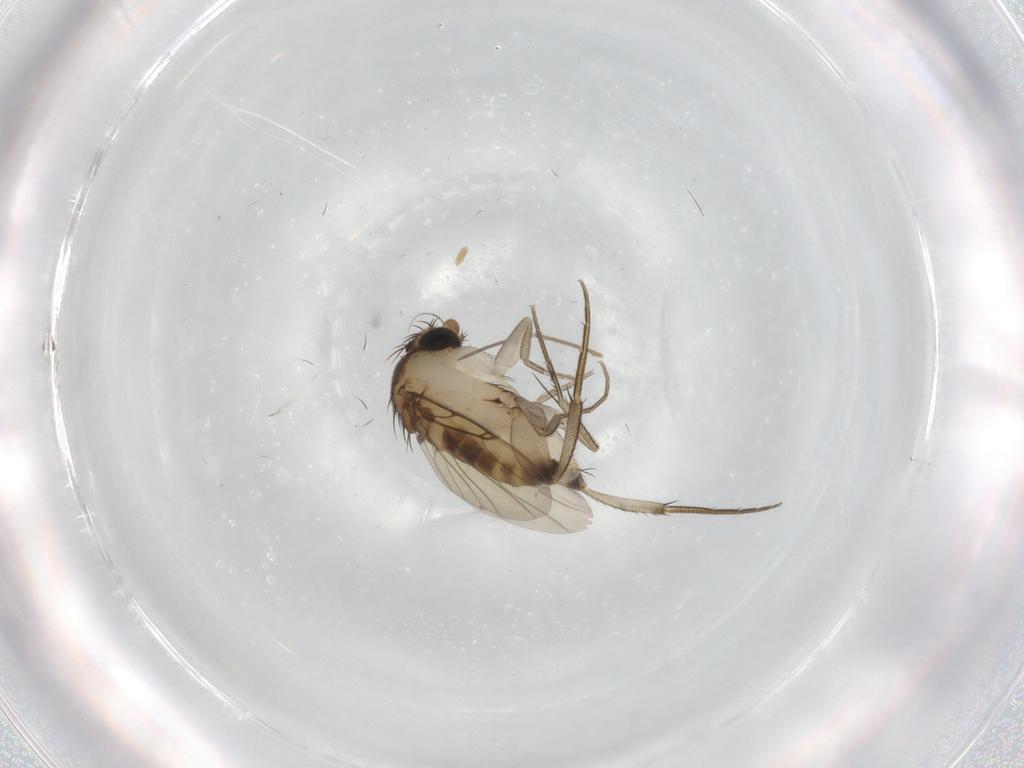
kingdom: Animalia
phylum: Arthropoda
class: Insecta
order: Diptera
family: Phoridae
